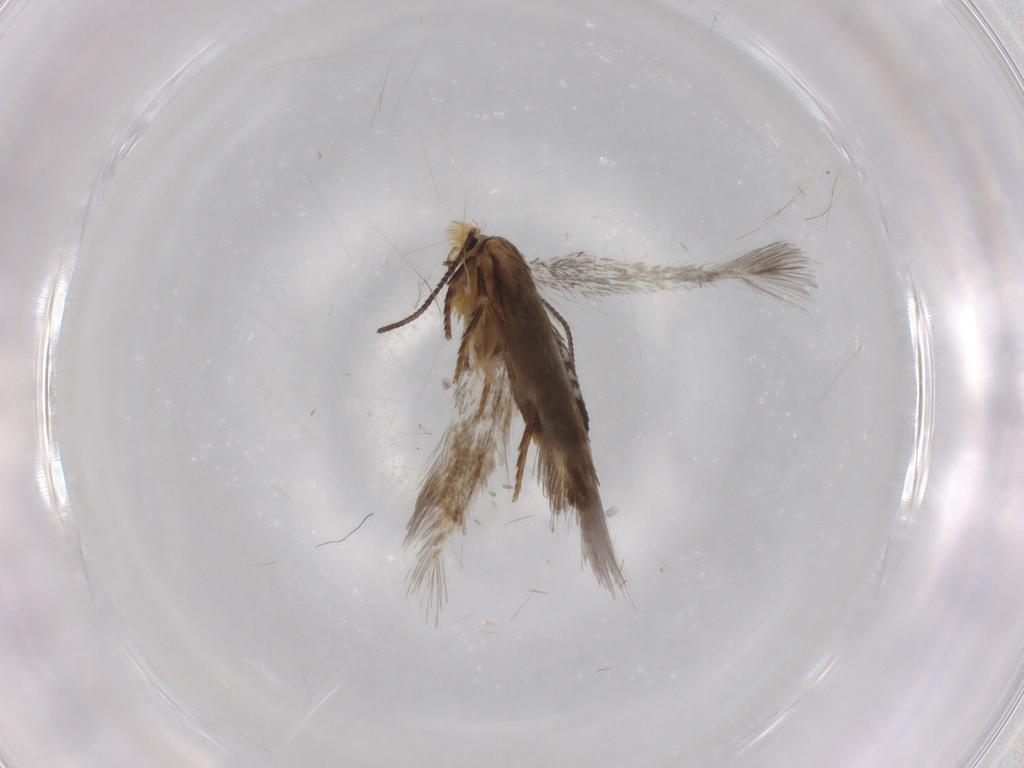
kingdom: Animalia
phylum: Arthropoda
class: Insecta
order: Lepidoptera
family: Nepticulidae
